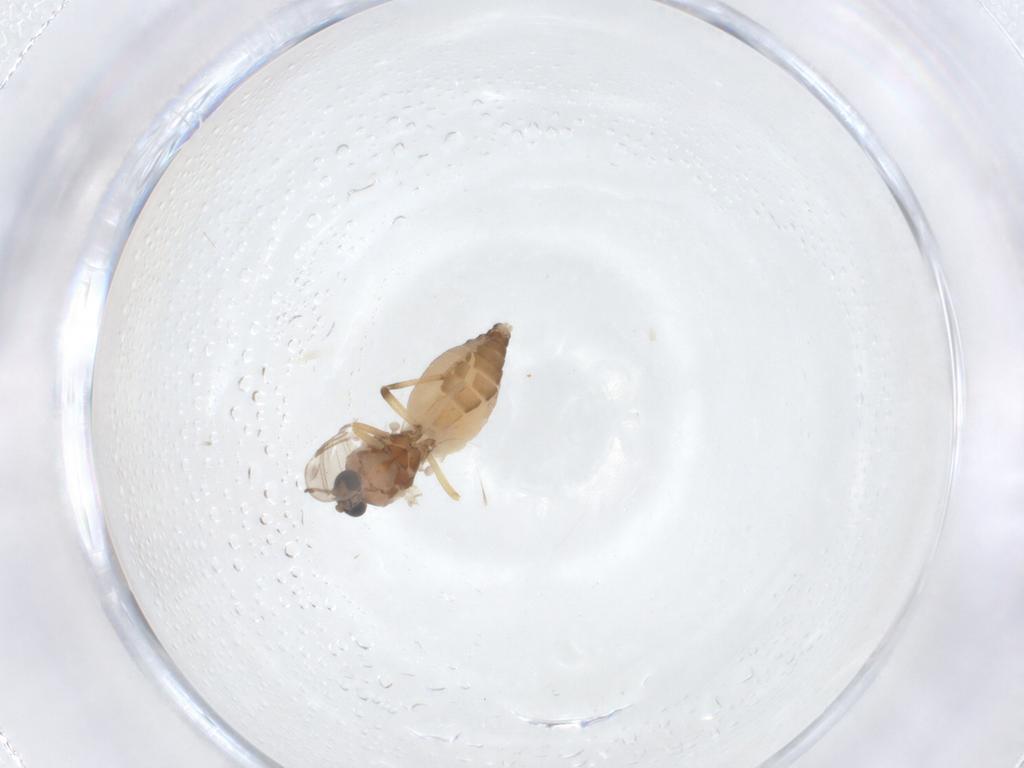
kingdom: Animalia
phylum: Arthropoda
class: Insecta
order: Diptera
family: Ceratopogonidae
